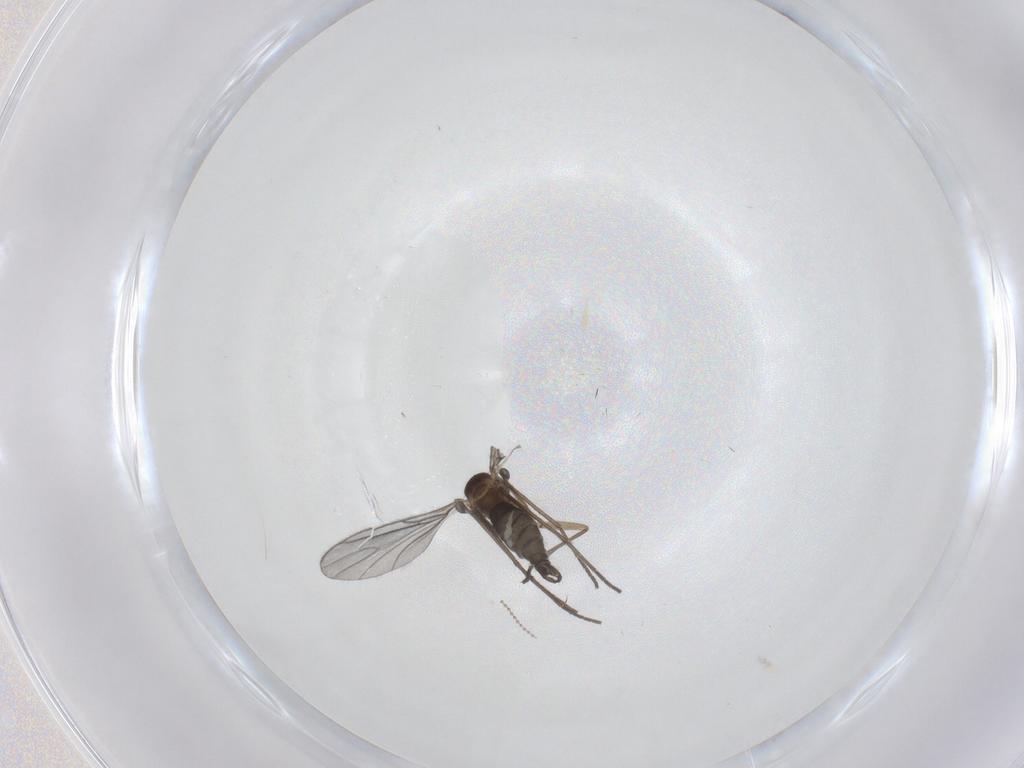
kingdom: Animalia
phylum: Arthropoda
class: Insecta
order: Diptera
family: Sciaridae
